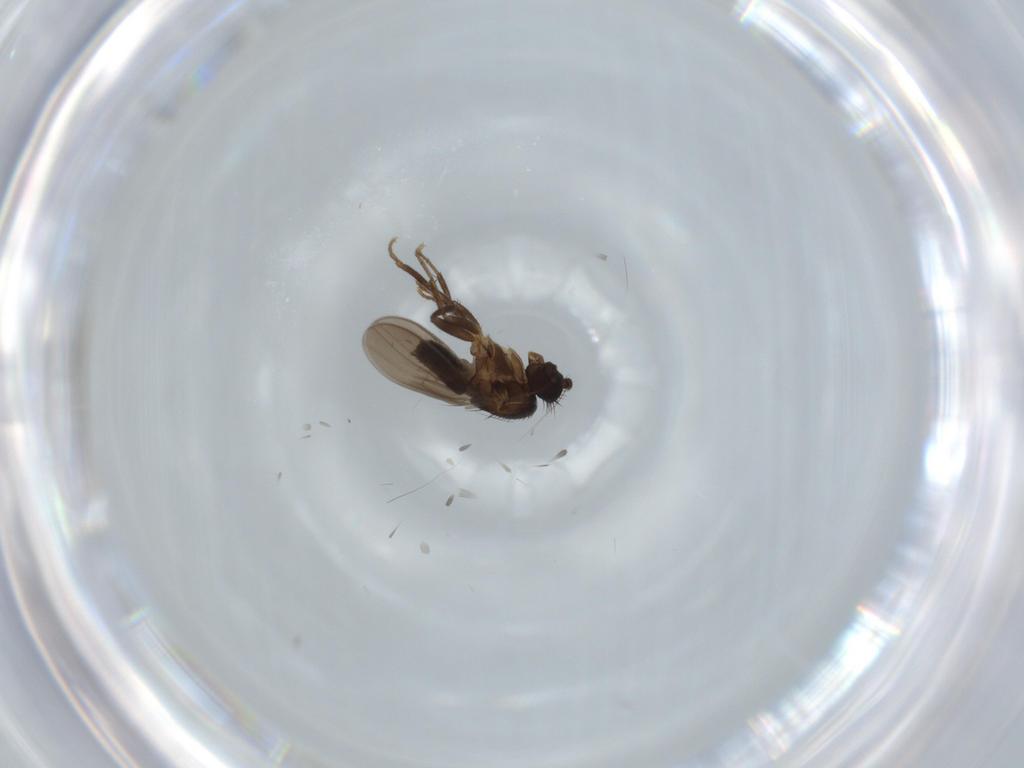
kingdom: Animalia
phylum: Arthropoda
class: Insecta
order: Diptera
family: Sphaeroceridae
